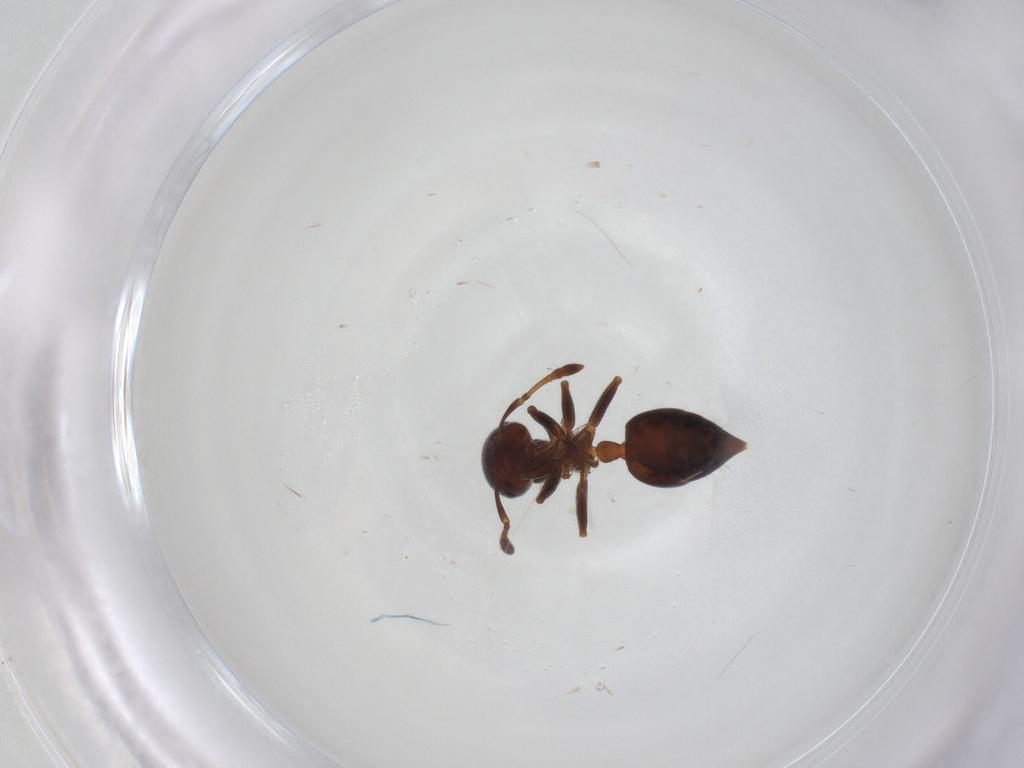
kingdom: Animalia
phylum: Arthropoda
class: Insecta
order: Hymenoptera
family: Formicidae
